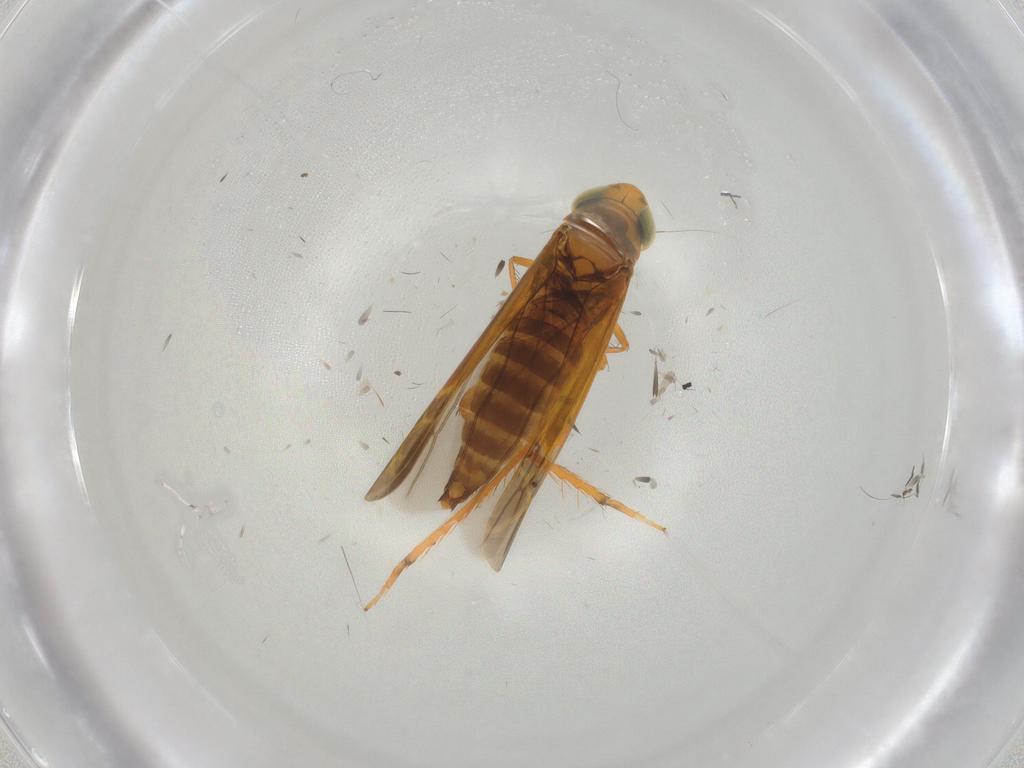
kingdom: Animalia
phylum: Arthropoda
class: Insecta
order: Hemiptera
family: Cicadellidae
